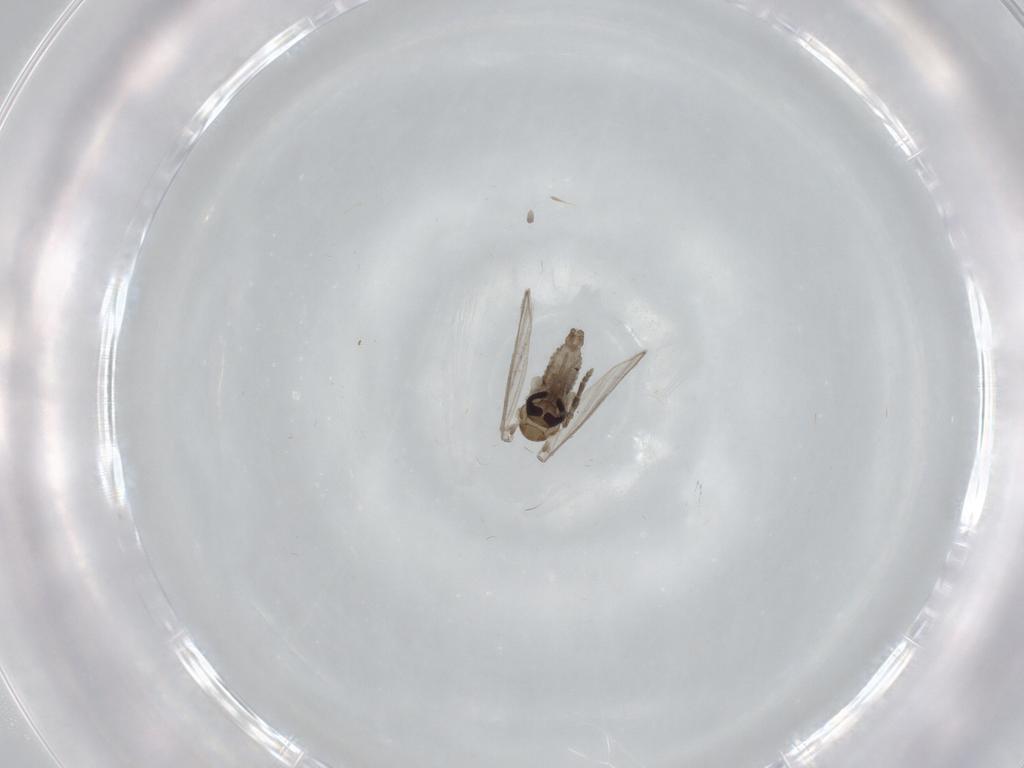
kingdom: Animalia
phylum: Arthropoda
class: Insecta
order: Diptera
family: Psychodidae
